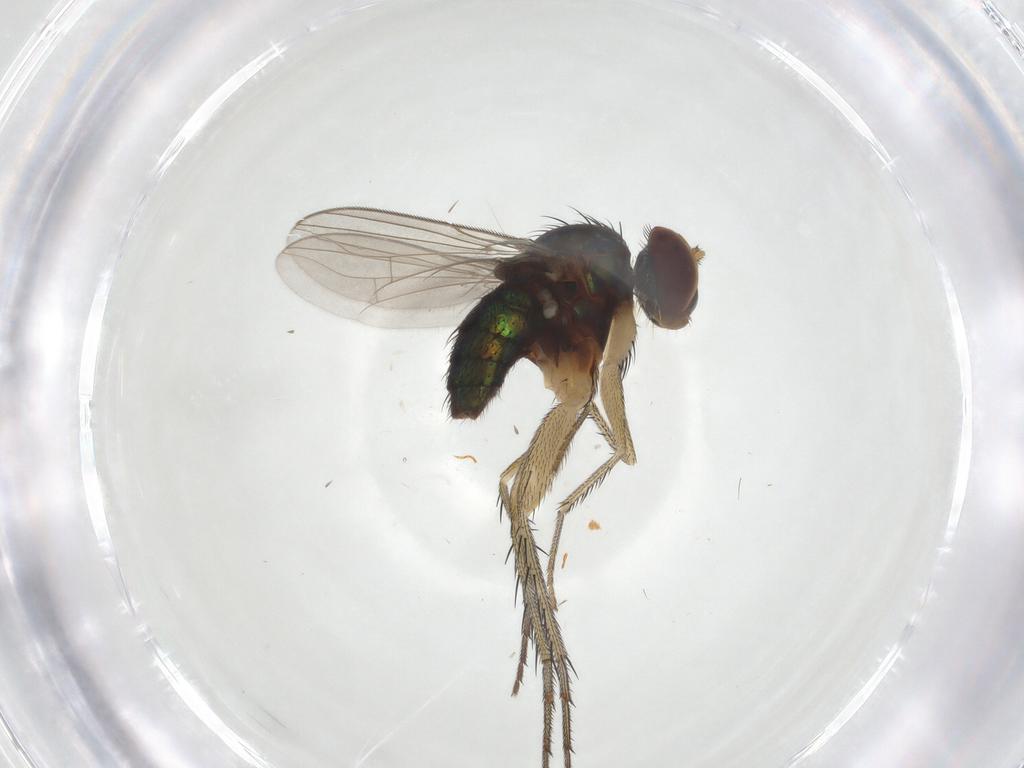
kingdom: Animalia
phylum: Arthropoda
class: Insecta
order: Diptera
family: Dolichopodidae
